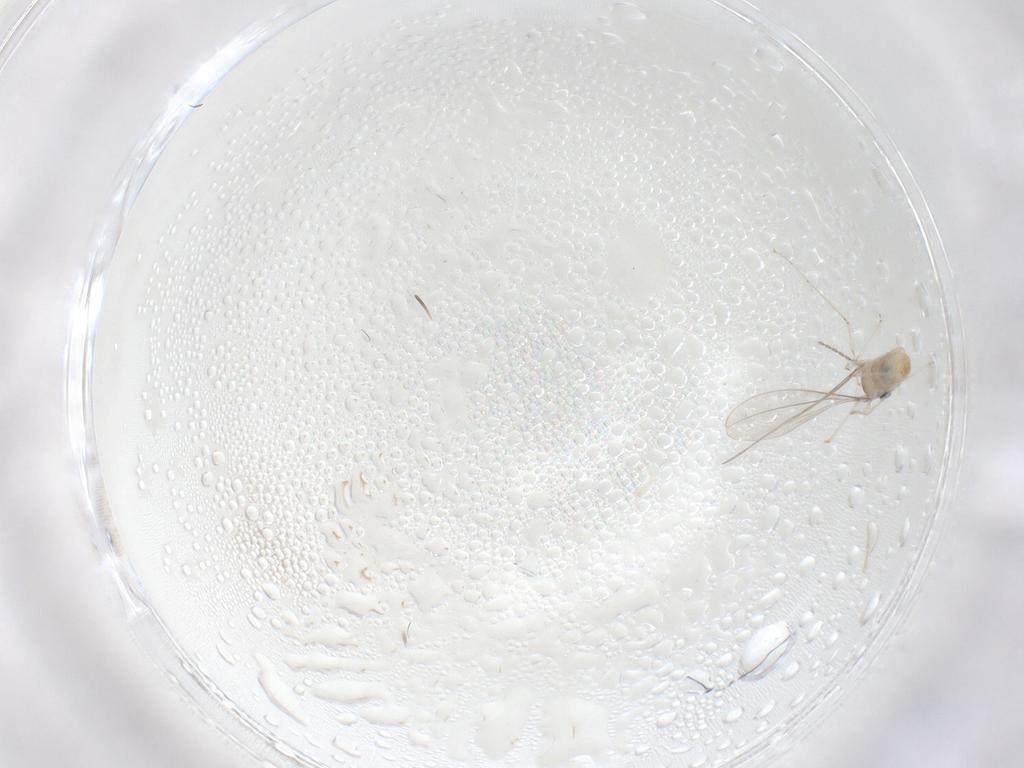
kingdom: Animalia
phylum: Arthropoda
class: Insecta
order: Diptera
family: Cecidomyiidae
